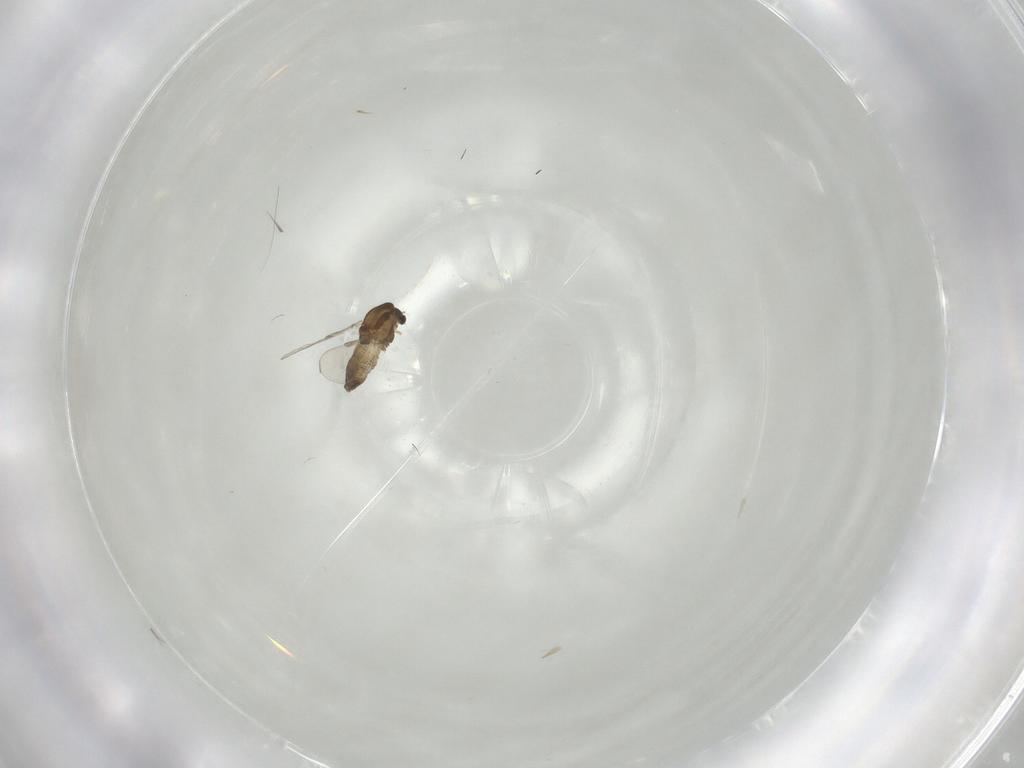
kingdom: Animalia
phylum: Arthropoda
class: Insecta
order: Diptera
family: Chironomidae
